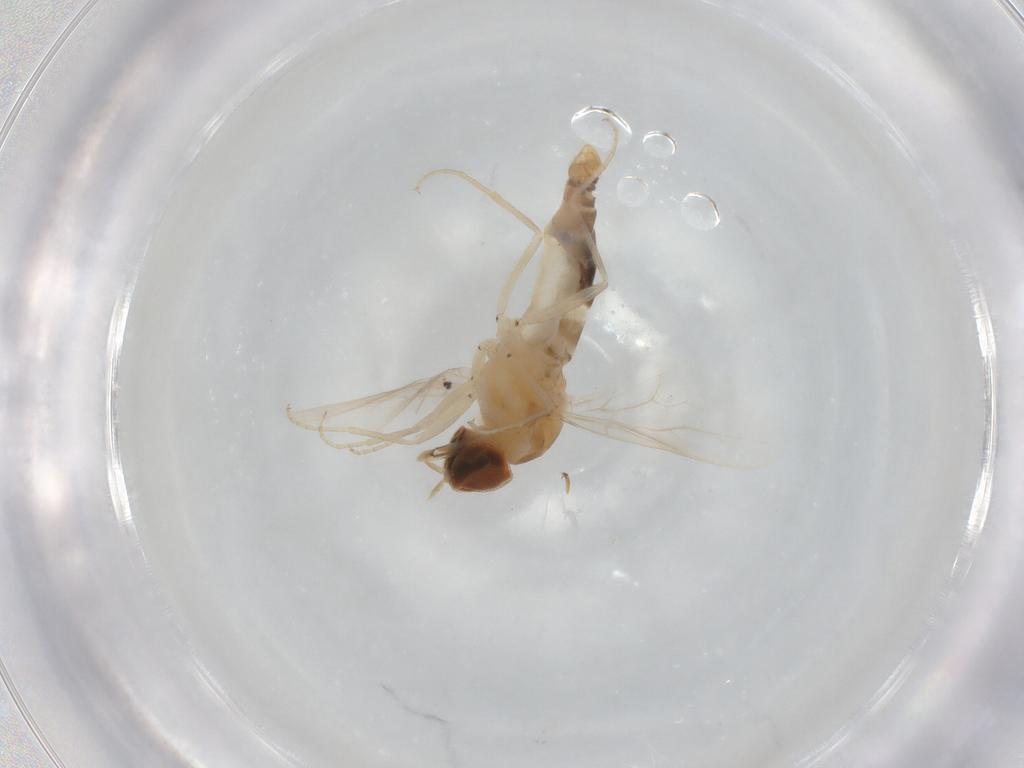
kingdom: Animalia
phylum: Arthropoda
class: Insecta
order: Diptera
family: Scenopinidae
